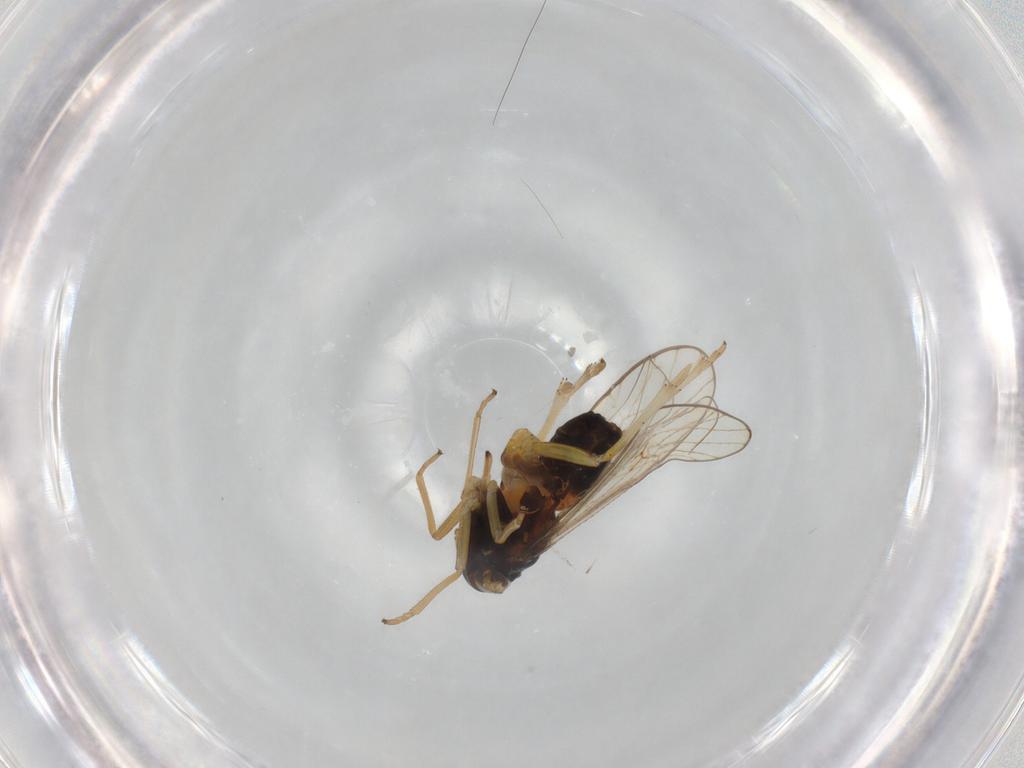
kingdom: Animalia
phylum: Arthropoda
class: Insecta
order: Hemiptera
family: Delphacidae
